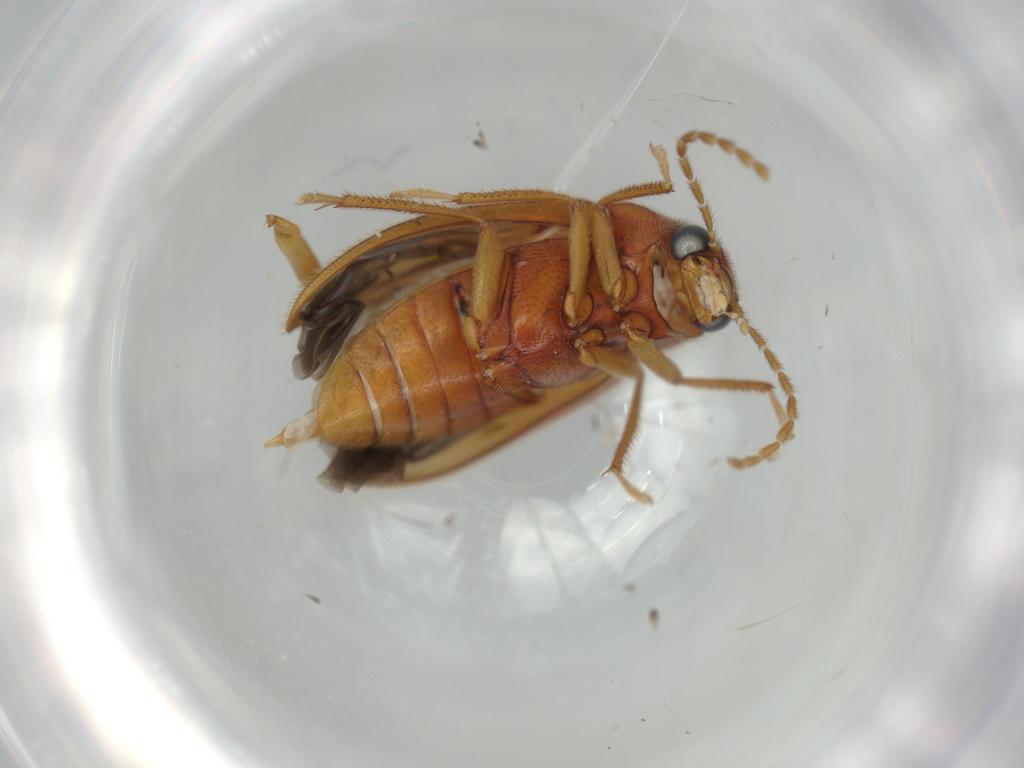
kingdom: Animalia
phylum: Arthropoda
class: Insecta
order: Coleoptera
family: Ptilodactylidae
